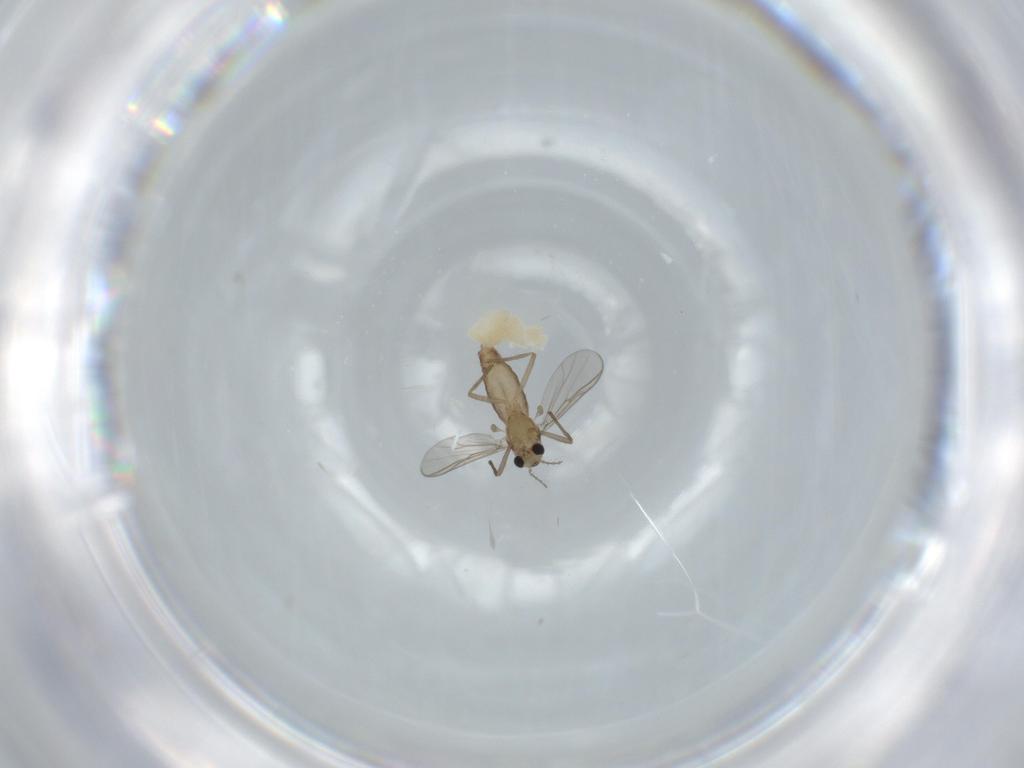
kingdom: Animalia
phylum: Arthropoda
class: Insecta
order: Diptera
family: Chironomidae
